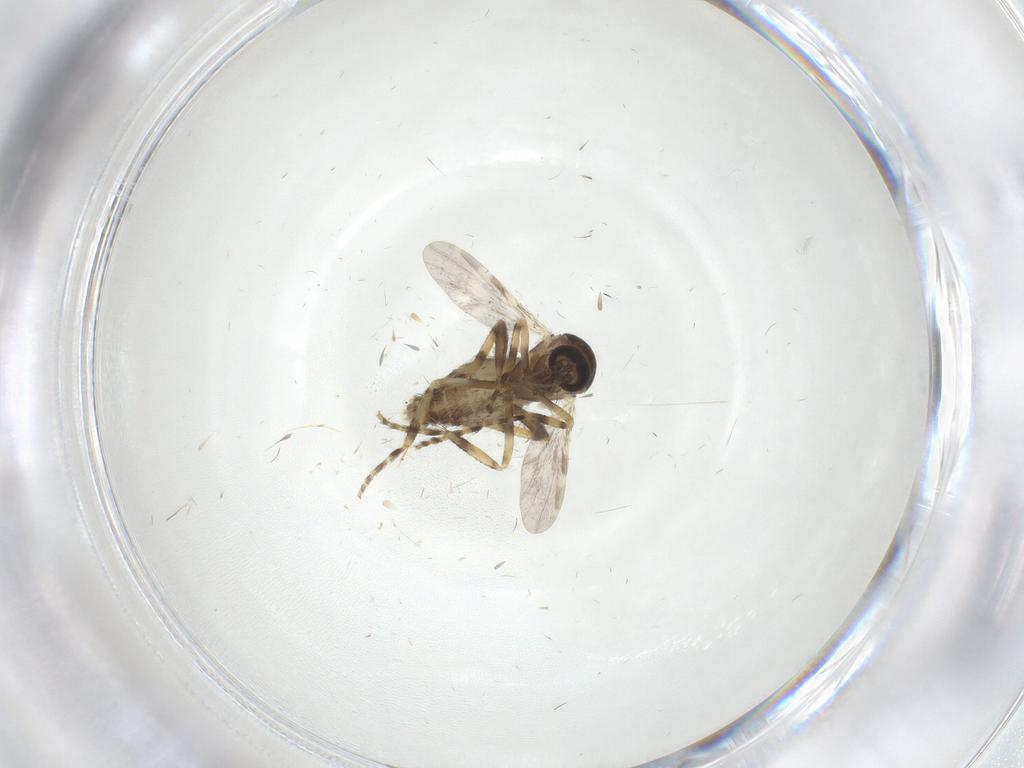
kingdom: Animalia
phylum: Arthropoda
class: Insecta
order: Diptera
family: Ceratopogonidae
